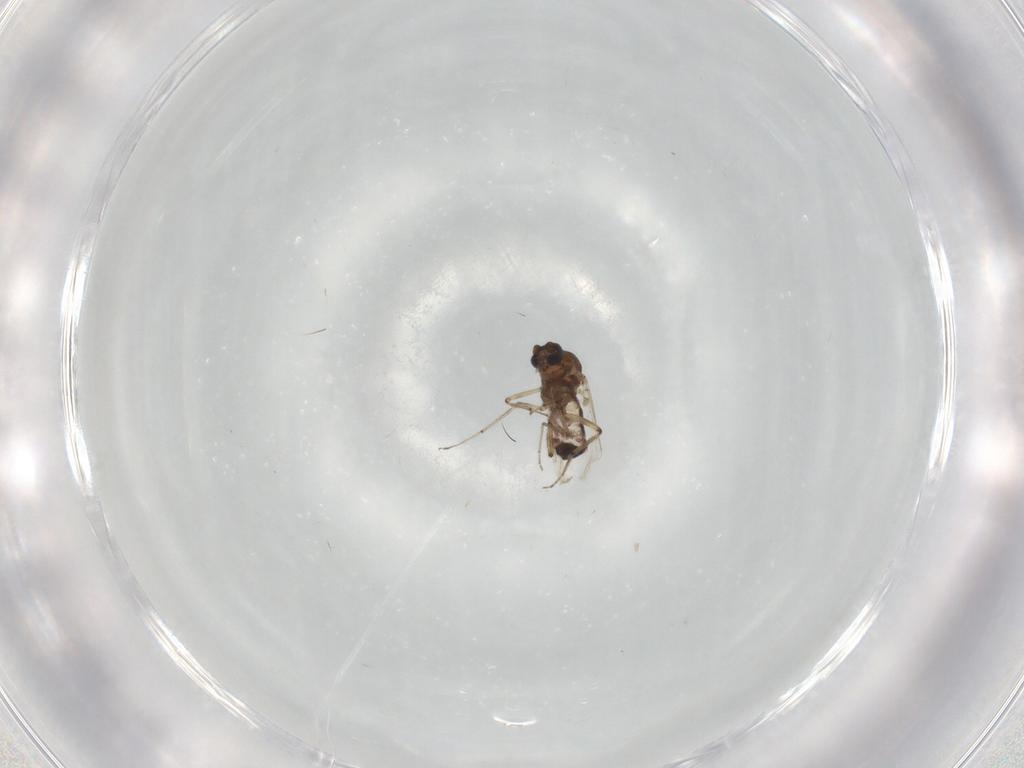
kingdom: Animalia
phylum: Arthropoda
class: Insecta
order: Diptera
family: Ceratopogonidae
